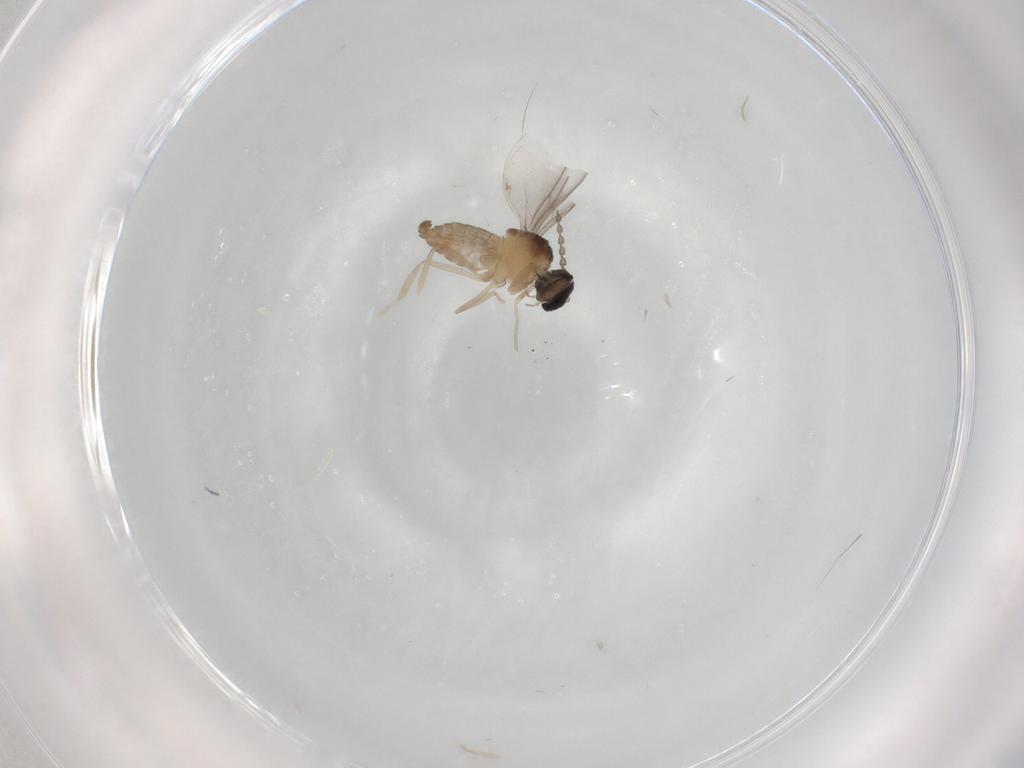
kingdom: Animalia
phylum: Arthropoda
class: Insecta
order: Diptera
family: Cecidomyiidae
